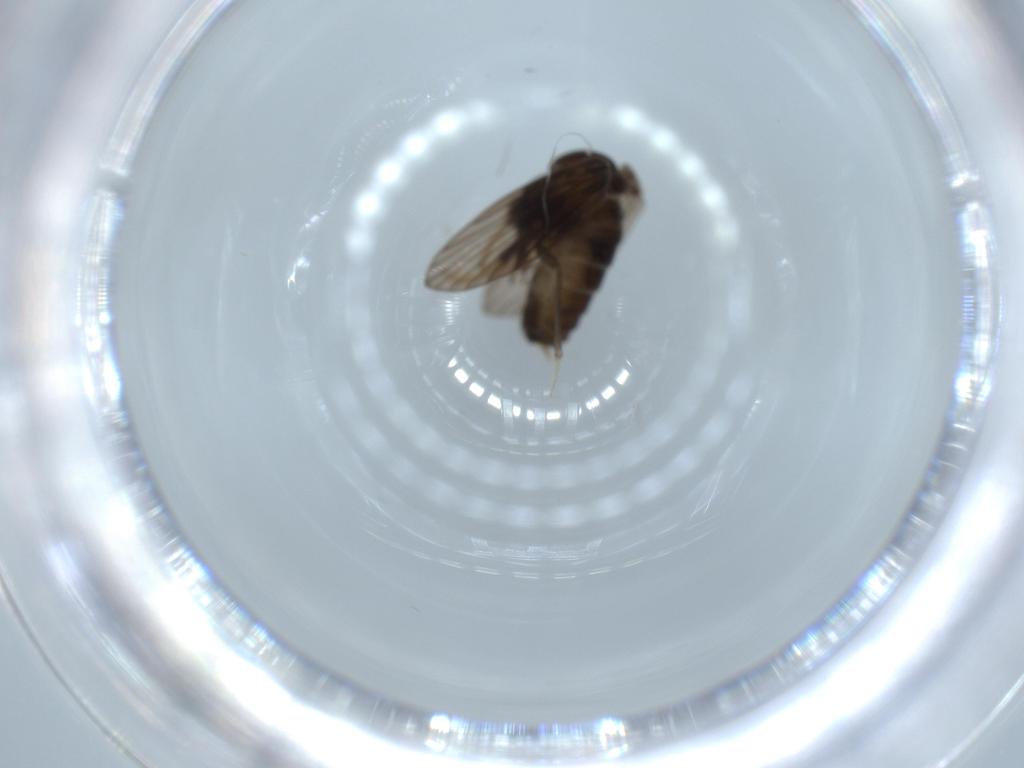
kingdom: Animalia
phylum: Arthropoda
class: Insecta
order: Diptera
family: Psychodidae
